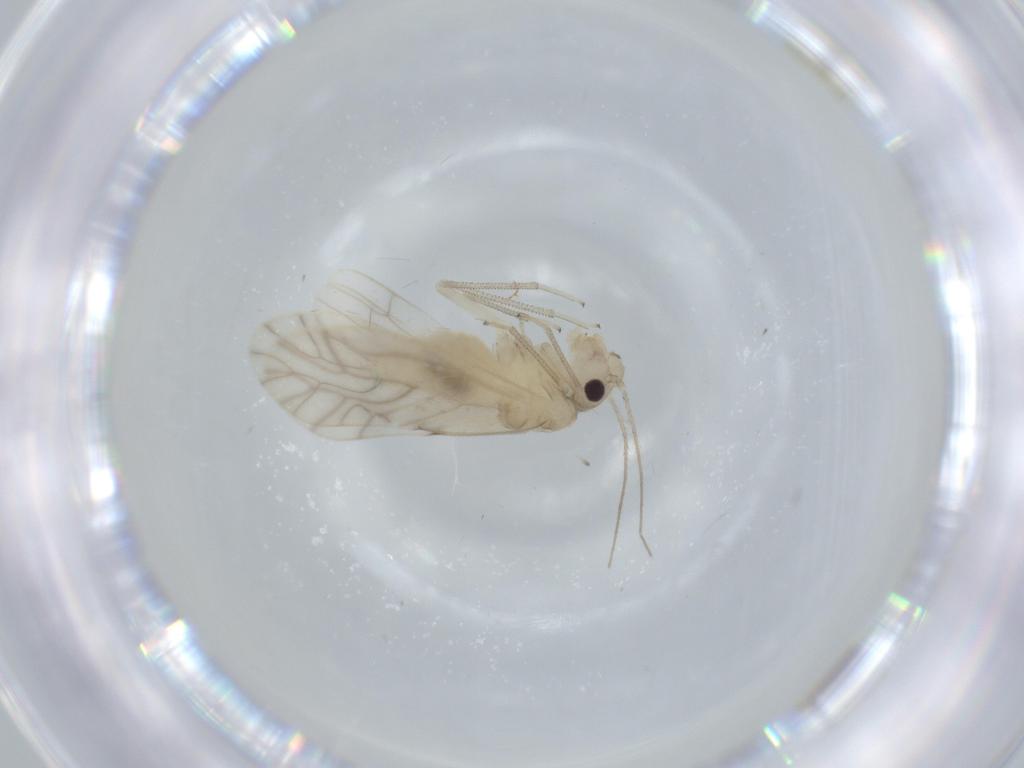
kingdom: Animalia
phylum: Arthropoda
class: Insecta
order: Psocodea
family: Caeciliusidae
